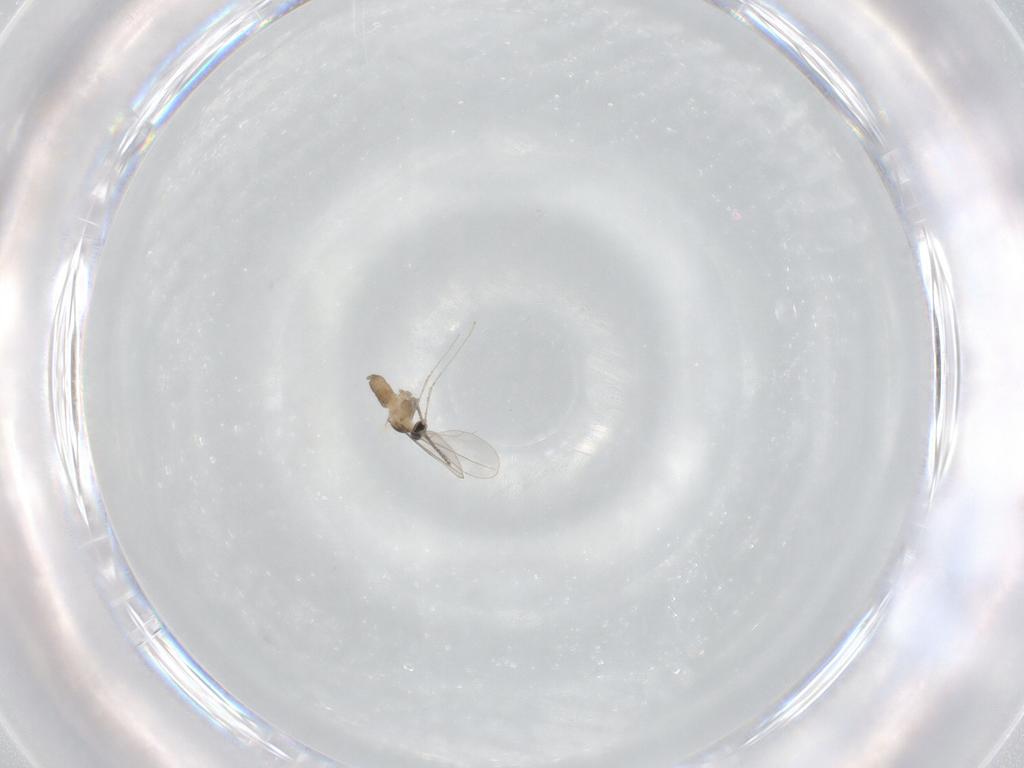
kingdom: Animalia
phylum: Arthropoda
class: Insecta
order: Diptera
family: Cecidomyiidae
